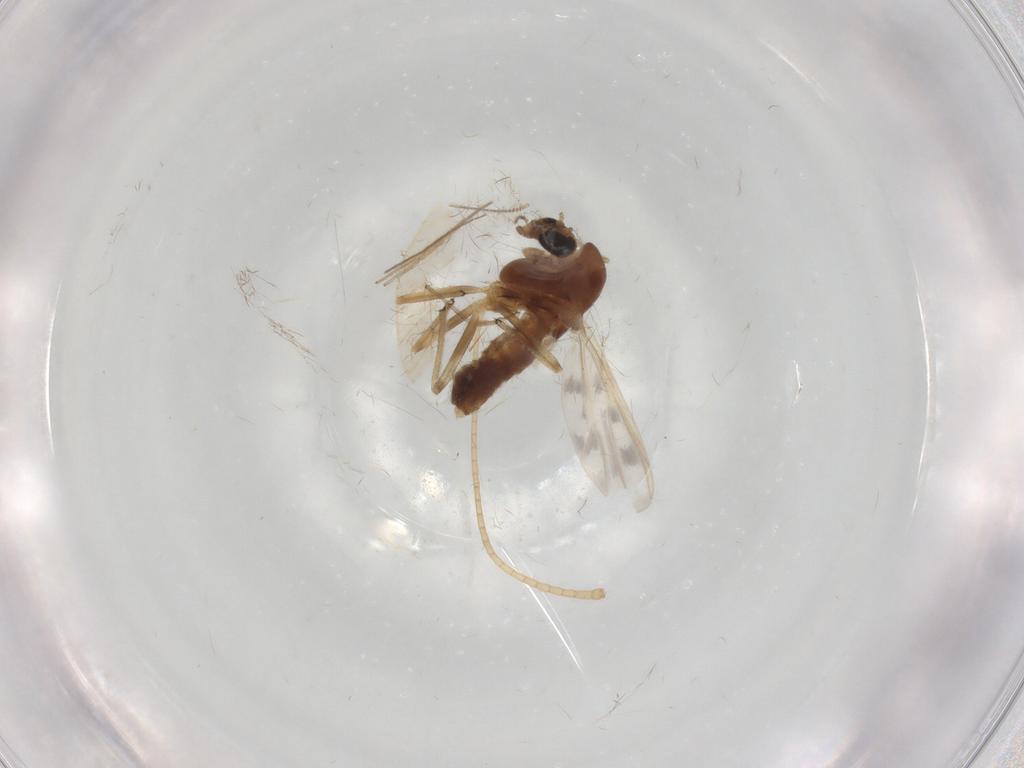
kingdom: Animalia
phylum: Arthropoda
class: Insecta
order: Diptera
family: Chironomidae
